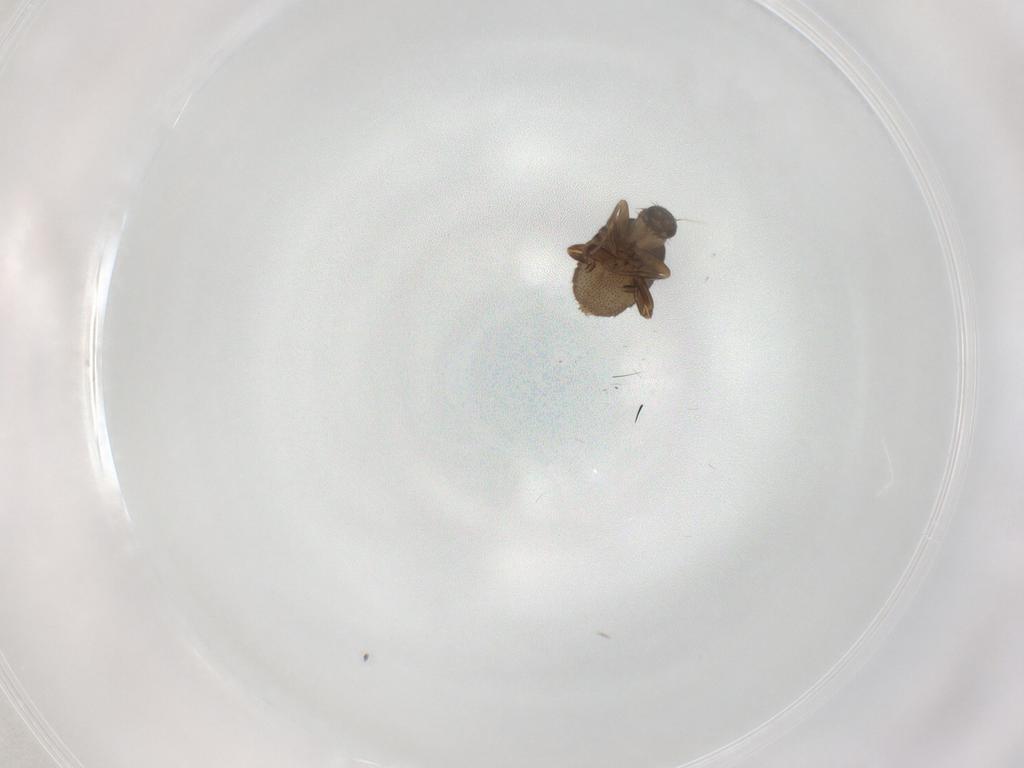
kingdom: Animalia
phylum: Arthropoda
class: Insecta
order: Diptera
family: Phoridae
